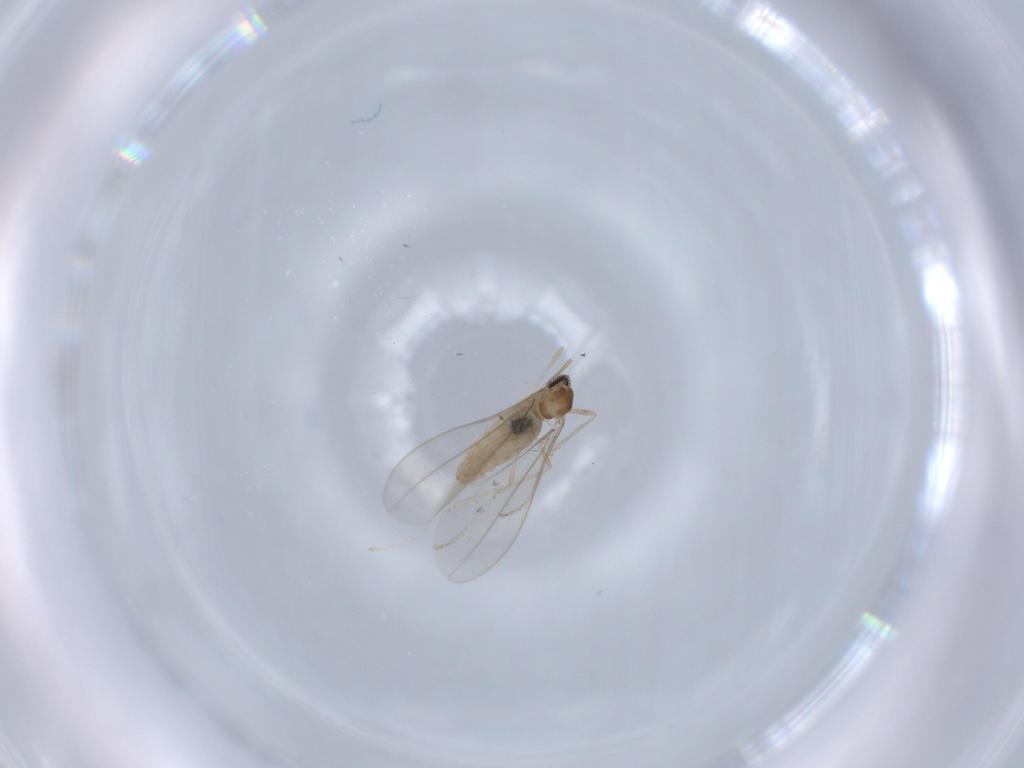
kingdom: Animalia
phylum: Arthropoda
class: Insecta
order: Diptera
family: Cecidomyiidae
